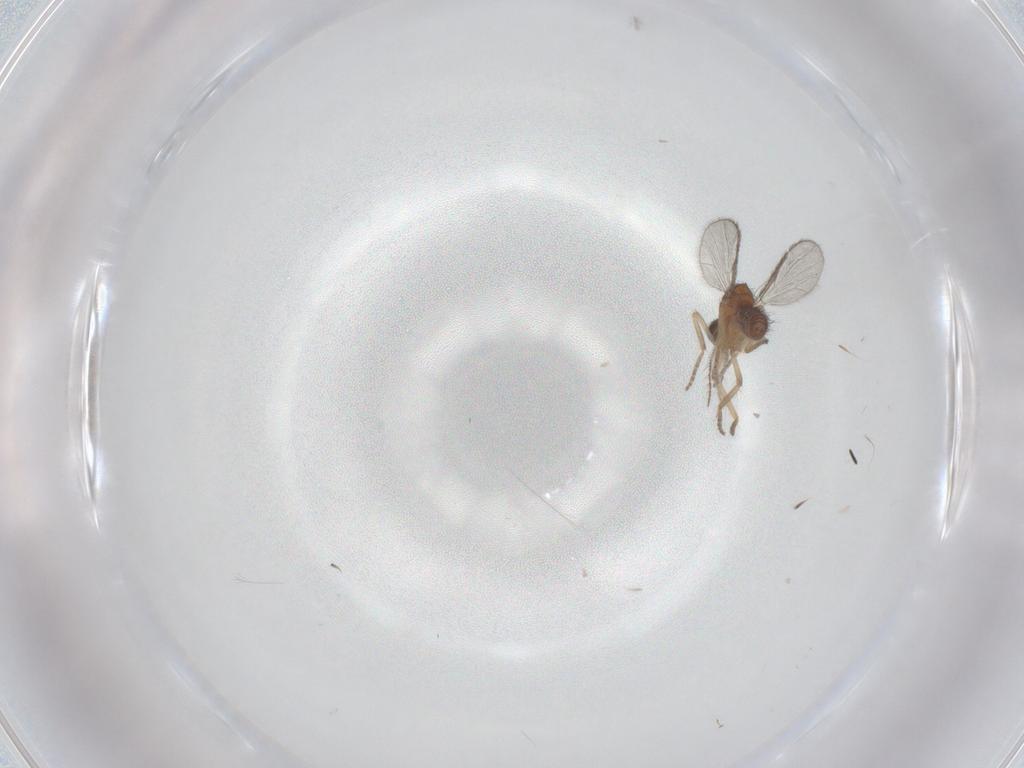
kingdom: Animalia
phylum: Arthropoda
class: Insecta
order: Diptera
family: Ceratopogonidae
